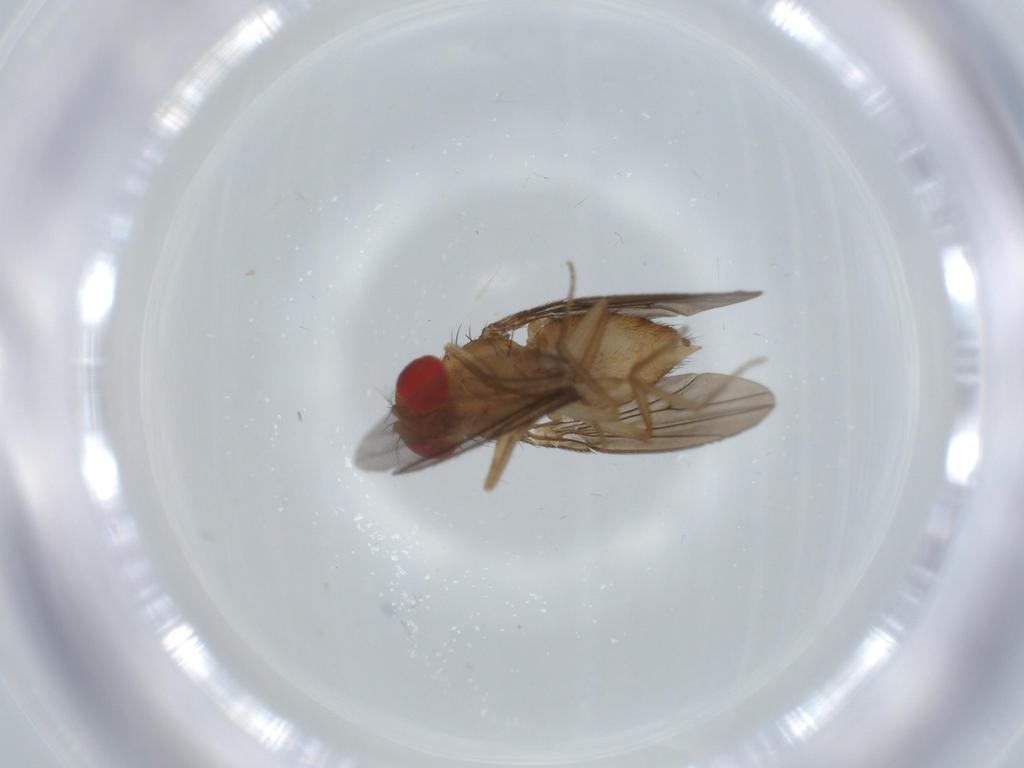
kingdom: Animalia
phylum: Arthropoda
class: Insecta
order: Diptera
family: Drosophilidae
